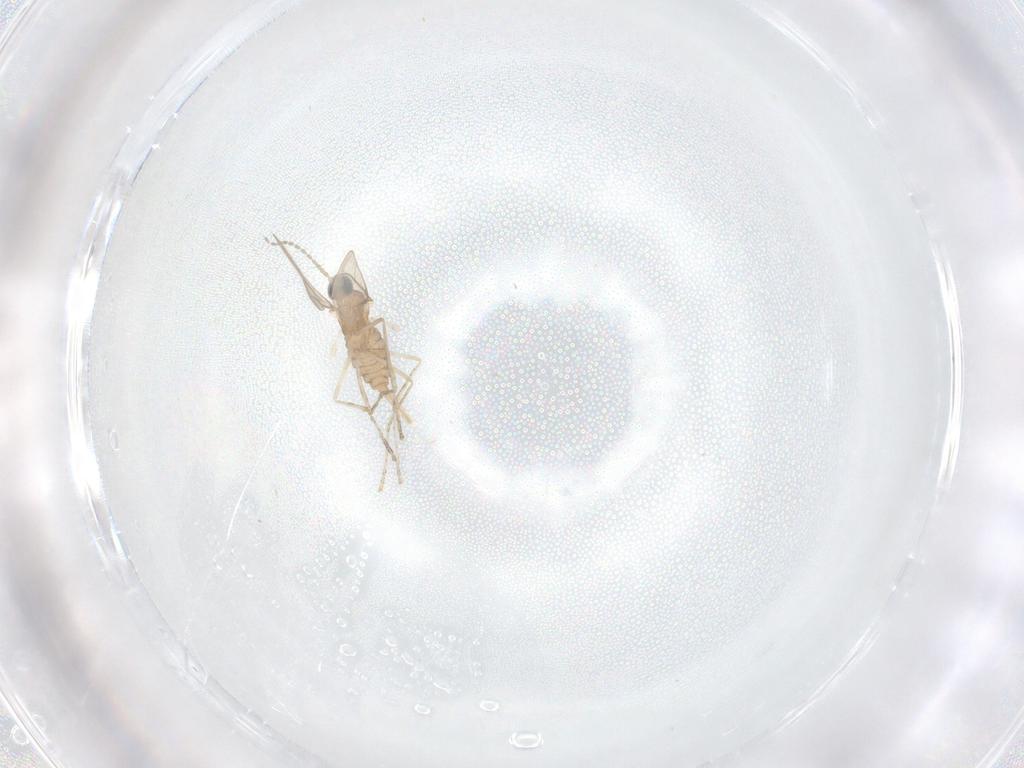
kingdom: Animalia
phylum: Arthropoda
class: Insecta
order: Diptera
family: Cecidomyiidae
